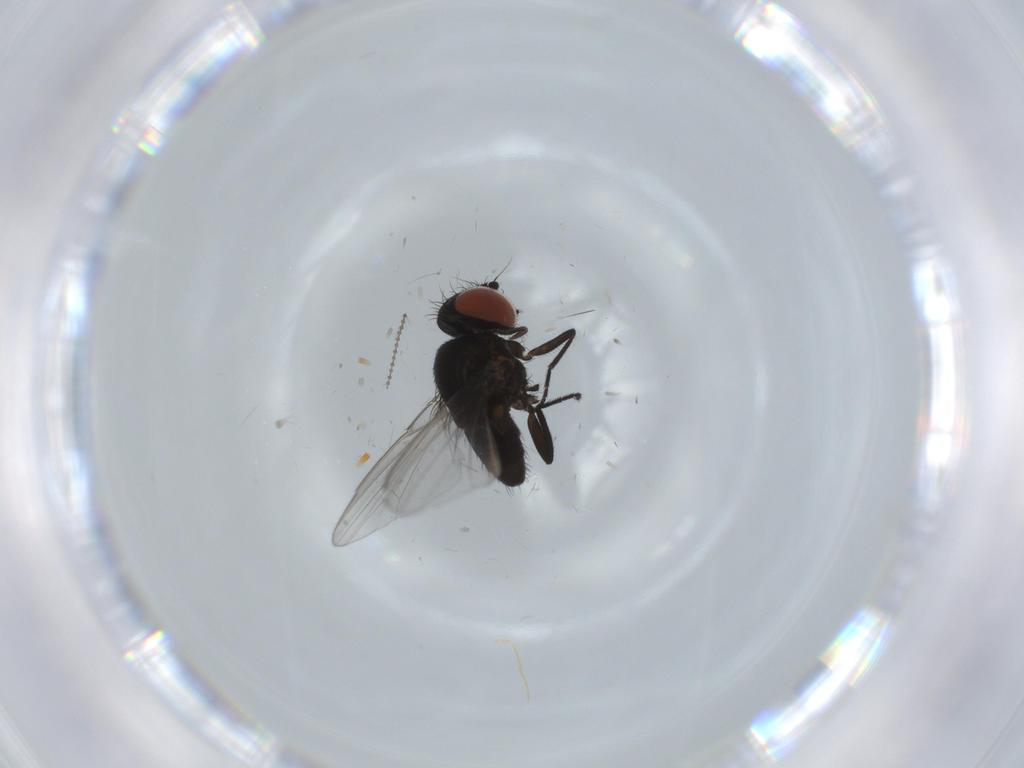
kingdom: Animalia
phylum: Arthropoda
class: Insecta
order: Diptera
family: Milichiidae
